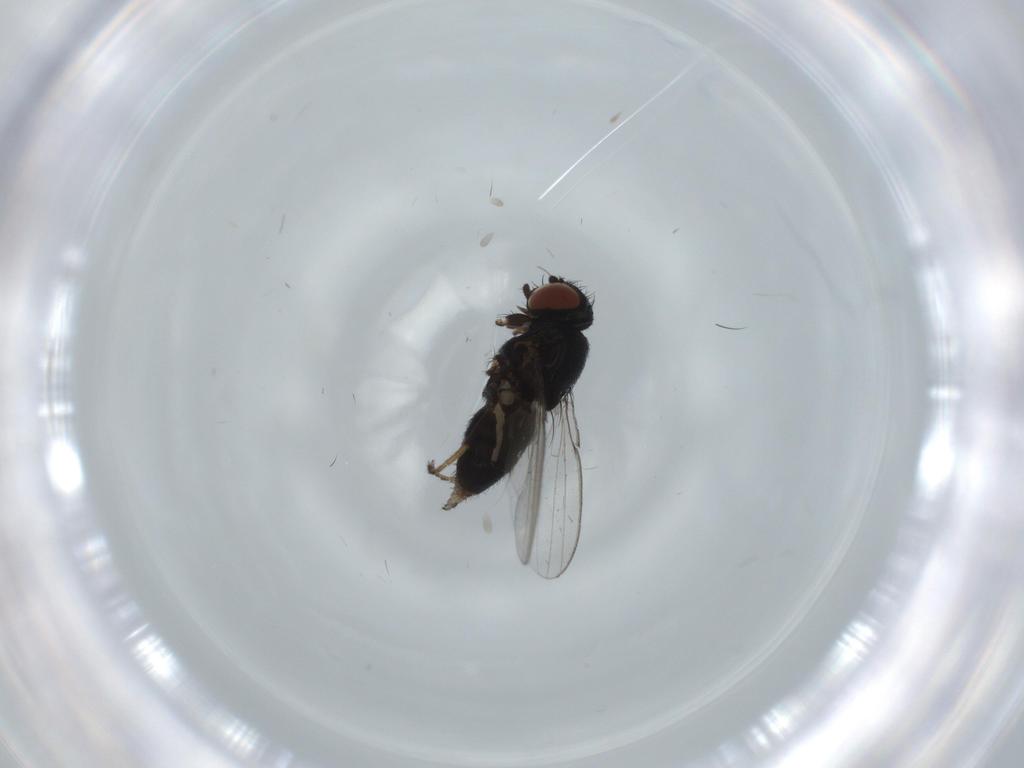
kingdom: Animalia
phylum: Arthropoda
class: Insecta
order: Diptera
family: Milichiidae
